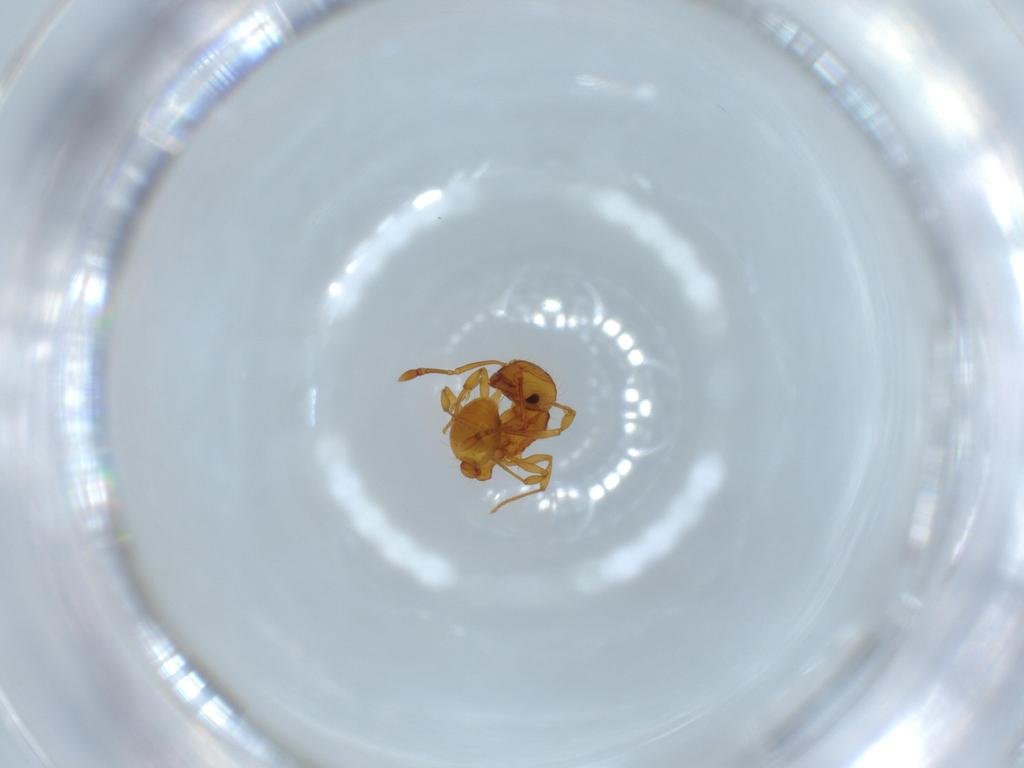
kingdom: Animalia
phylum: Arthropoda
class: Insecta
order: Hymenoptera
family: Formicidae
